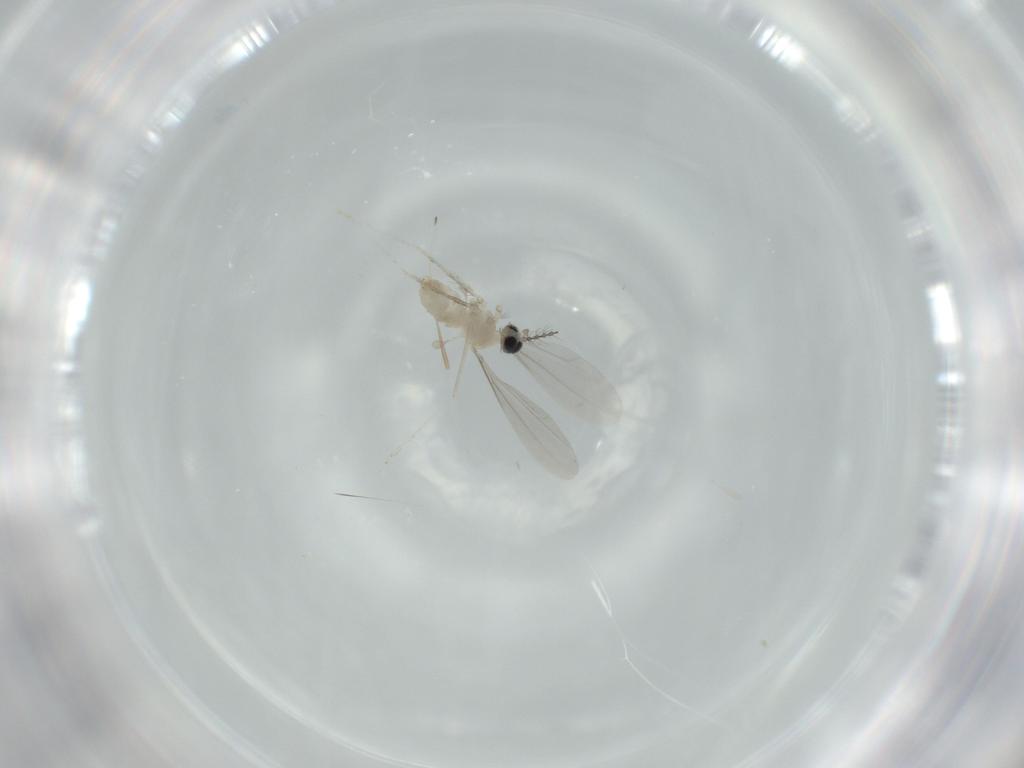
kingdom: Animalia
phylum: Arthropoda
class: Insecta
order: Diptera
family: Cecidomyiidae
